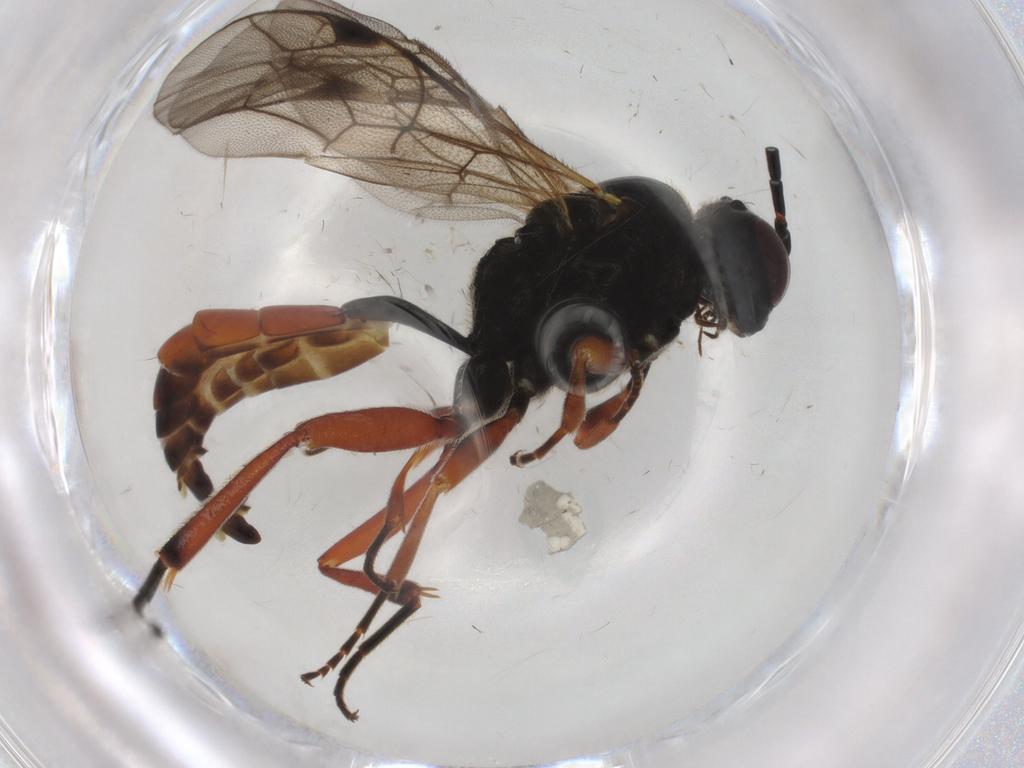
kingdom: Animalia
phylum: Arthropoda
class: Insecta
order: Hymenoptera
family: Ichneumonidae
